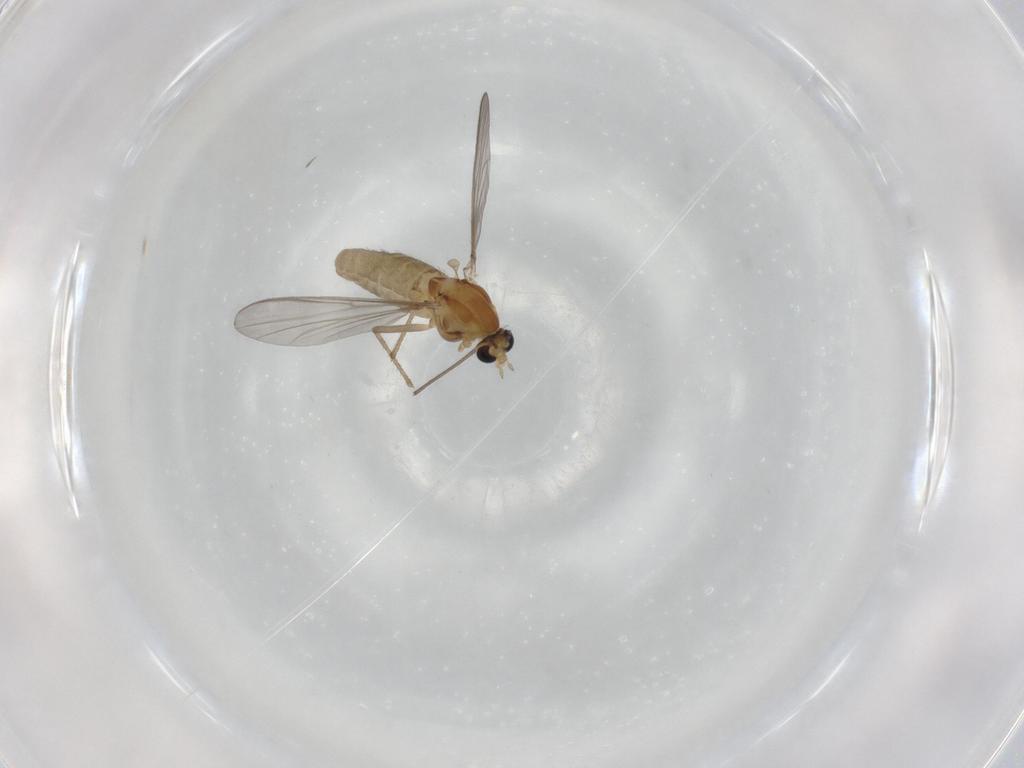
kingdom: Animalia
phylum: Arthropoda
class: Insecta
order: Diptera
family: Chironomidae
